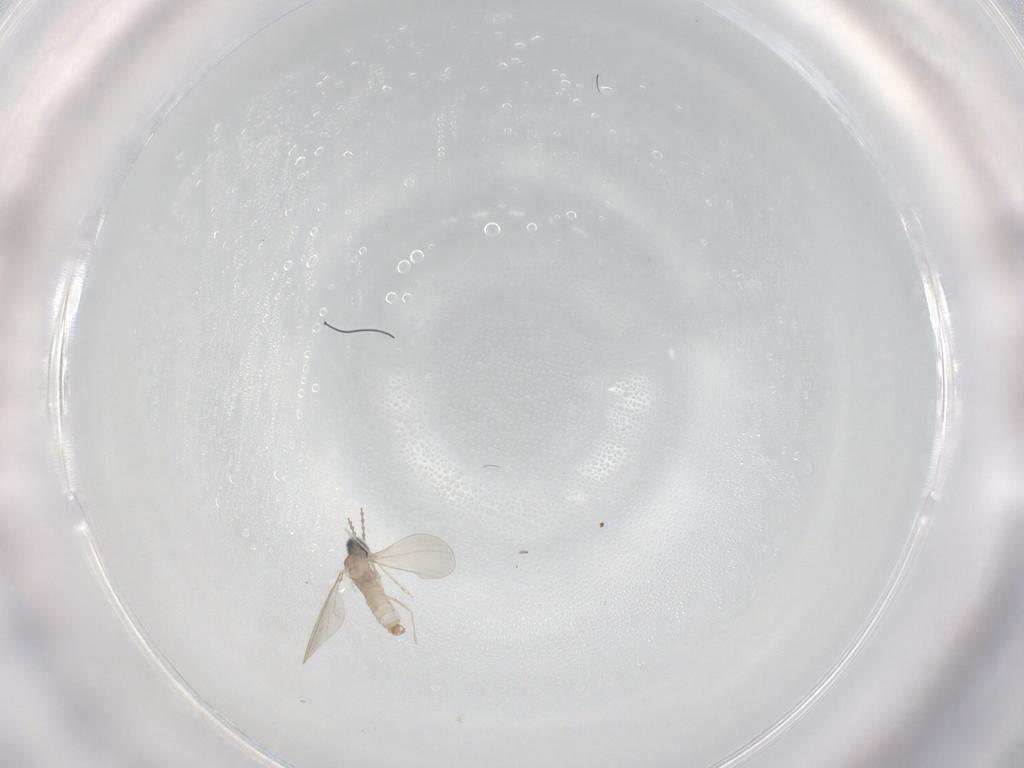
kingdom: Animalia
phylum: Arthropoda
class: Insecta
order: Diptera
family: Chironomidae
